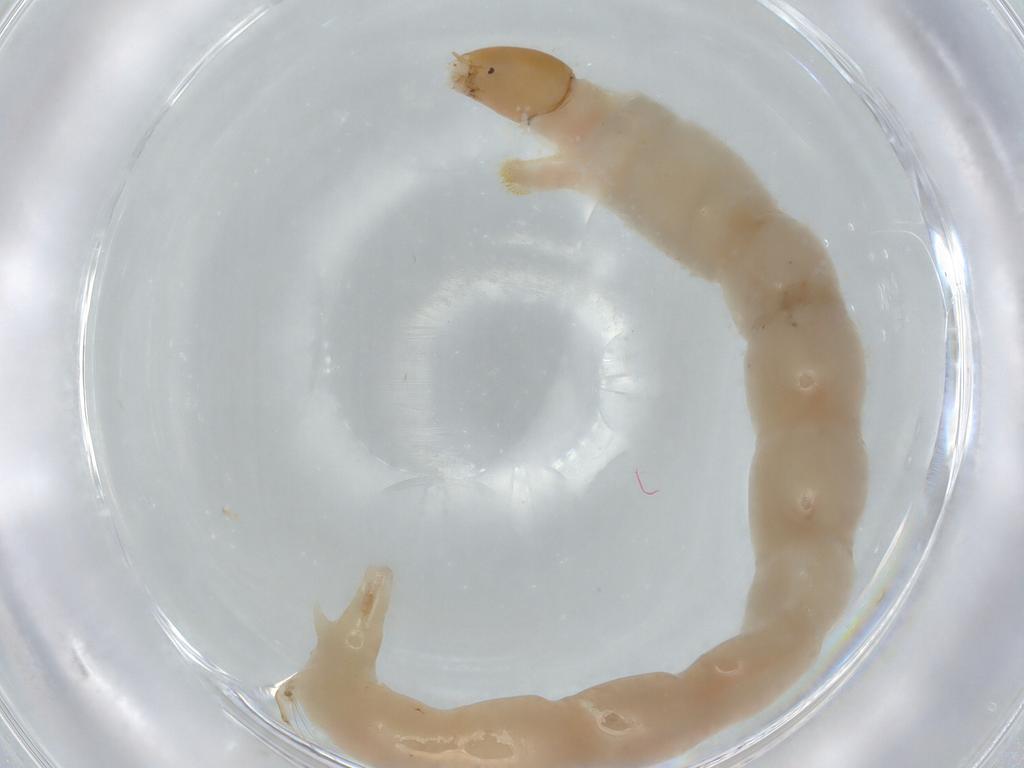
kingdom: Animalia
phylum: Arthropoda
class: Insecta
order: Diptera
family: Chironomidae
